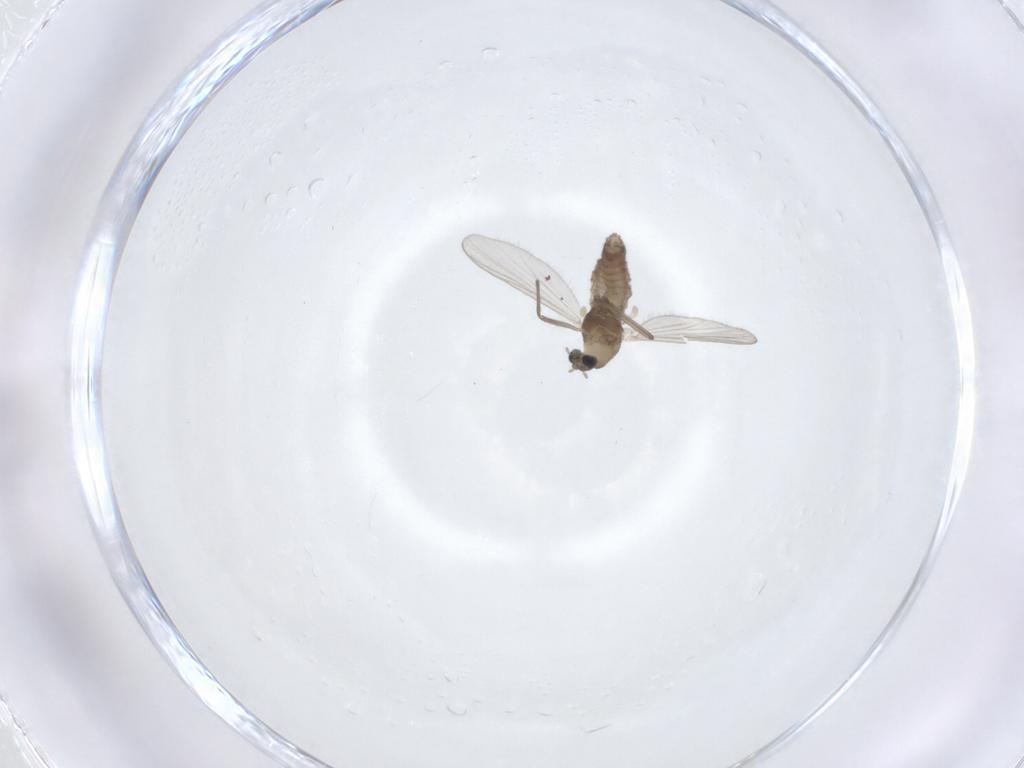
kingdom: Animalia
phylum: Arthropoda
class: Insecta
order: Diptera
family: Chironomidae
